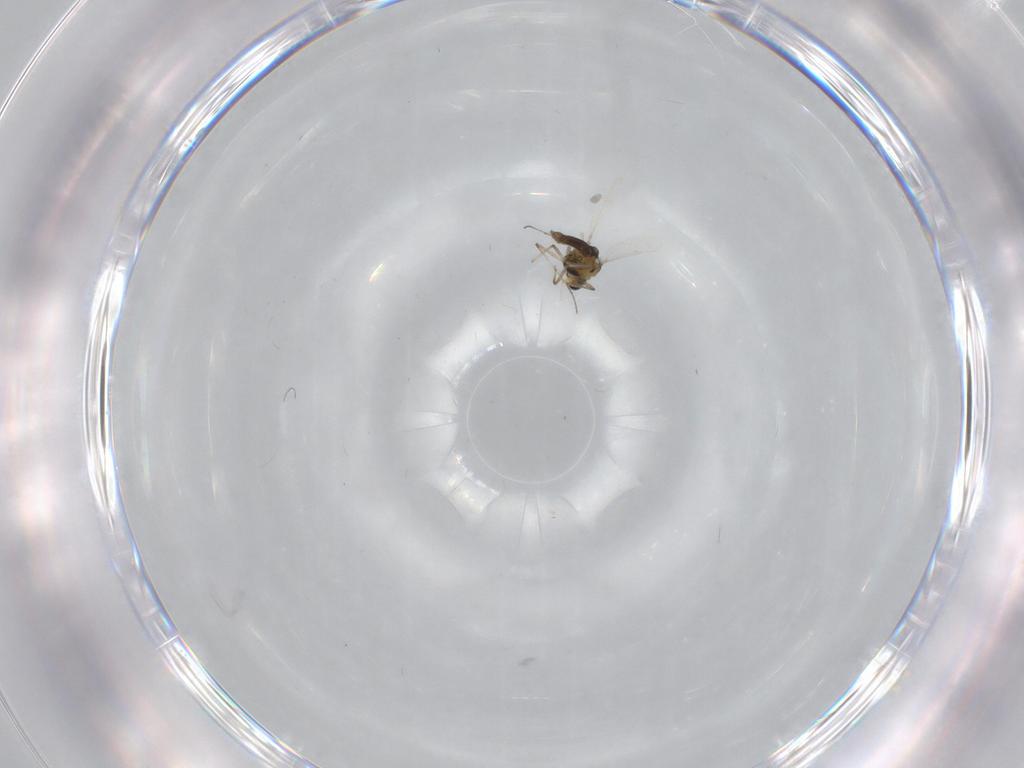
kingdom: Animalia
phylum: Arthropoda
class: Insecta
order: Diptera
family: Chironomidae
